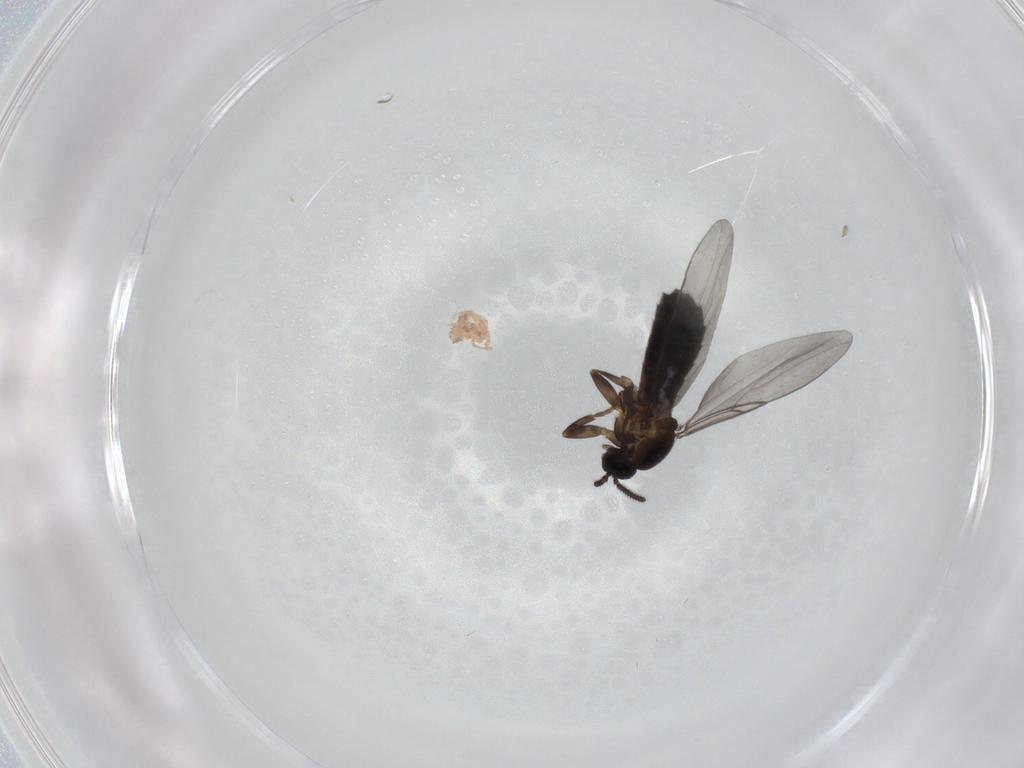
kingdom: Animalia
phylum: Arthropoda
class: Insecta
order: Diptera
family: Scatopsidae
